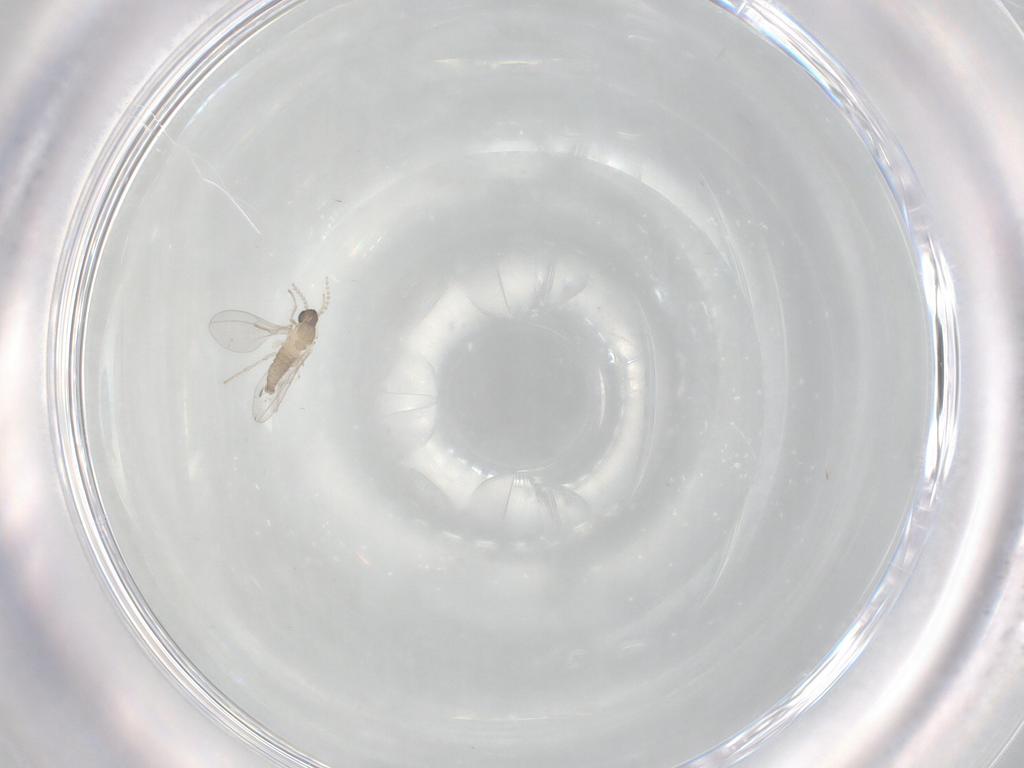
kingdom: Animalia
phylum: Arthropoda
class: Insecta
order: Diptera
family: Cecidomyiidae
